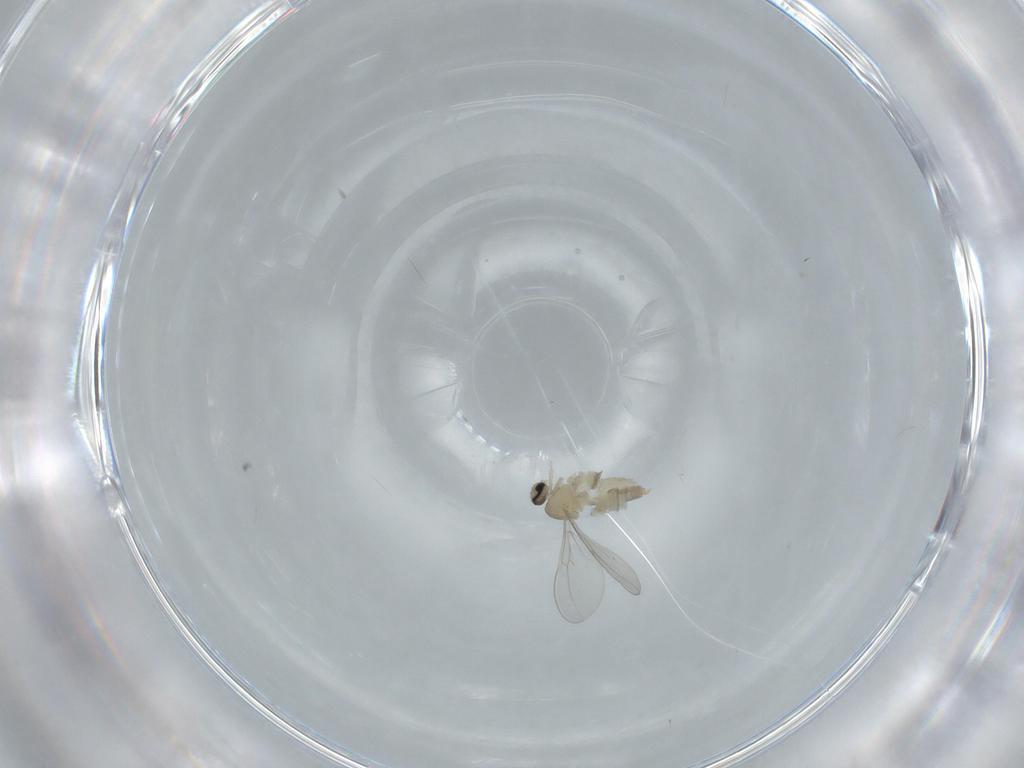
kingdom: Animalia
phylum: Arthropoda
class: Insecta
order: Diptera
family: Cecidomyiidae
